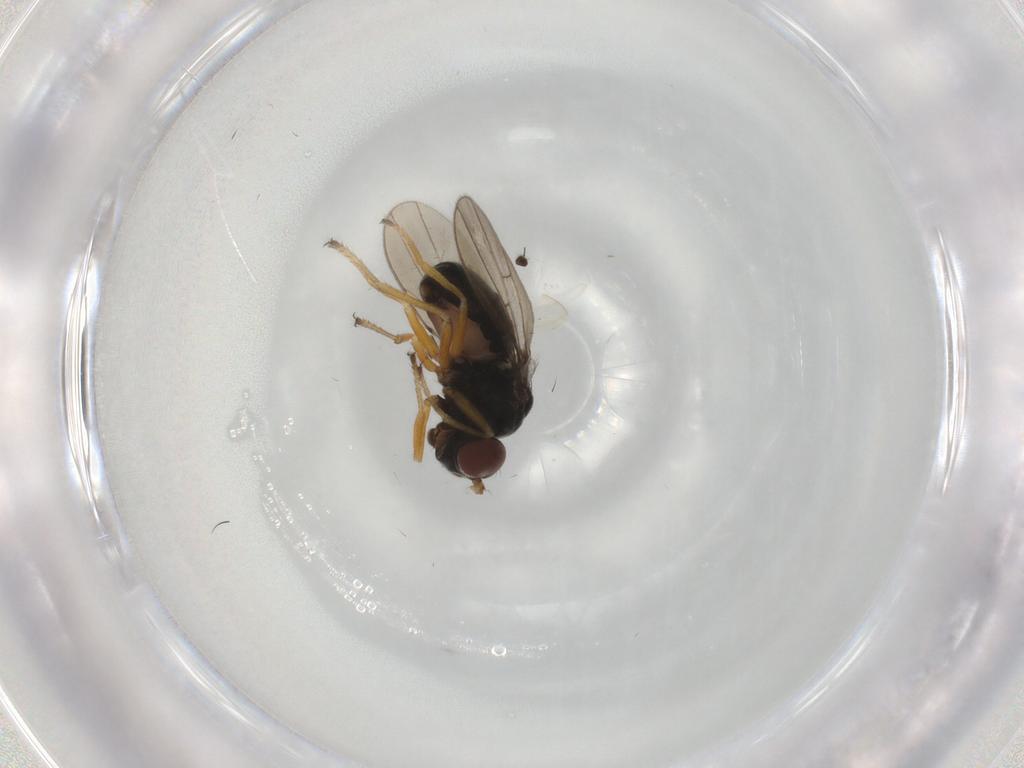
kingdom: Animalia
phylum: Arthropoda
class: Insecta
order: Diptera
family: Ephydridae
